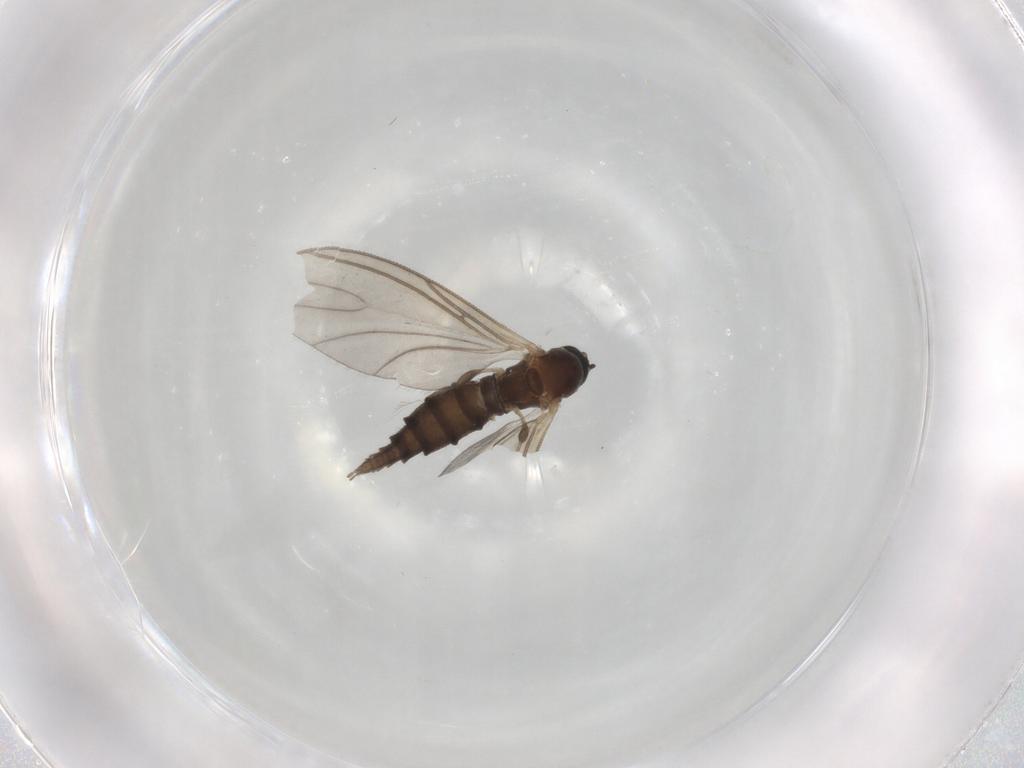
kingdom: Animalia
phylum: Arthropoda
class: Insecta
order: Diptera
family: Sciaridae
